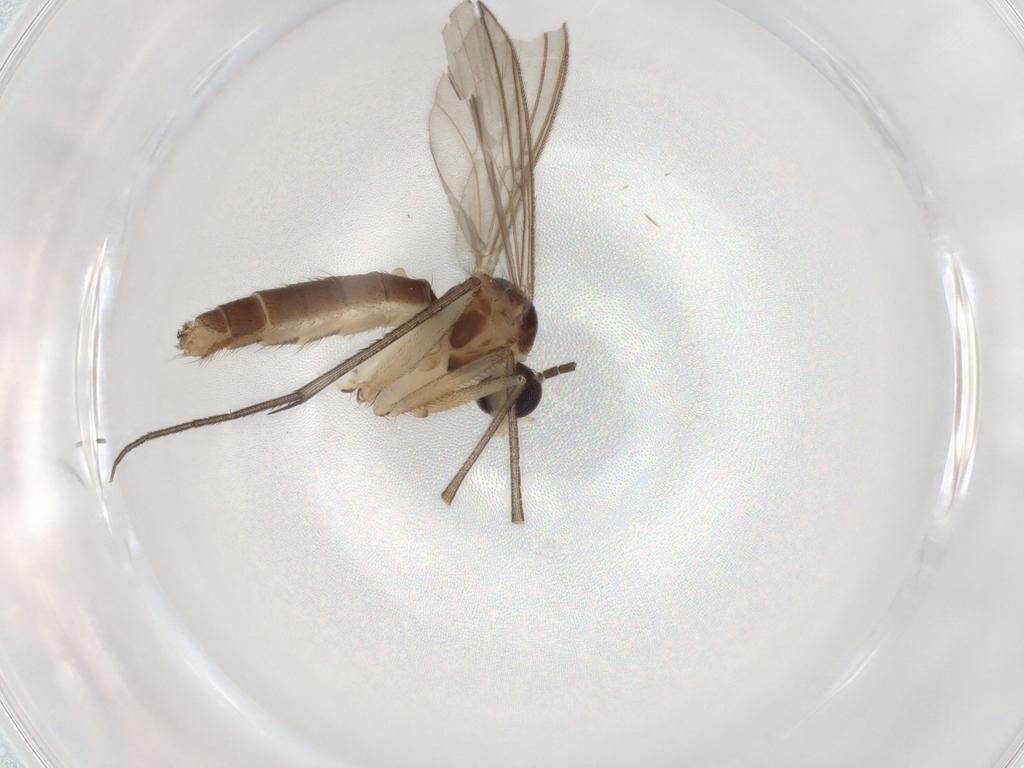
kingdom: Animalia
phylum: Arthropoda
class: Insecta
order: Diptera
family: Mycetophilidae
